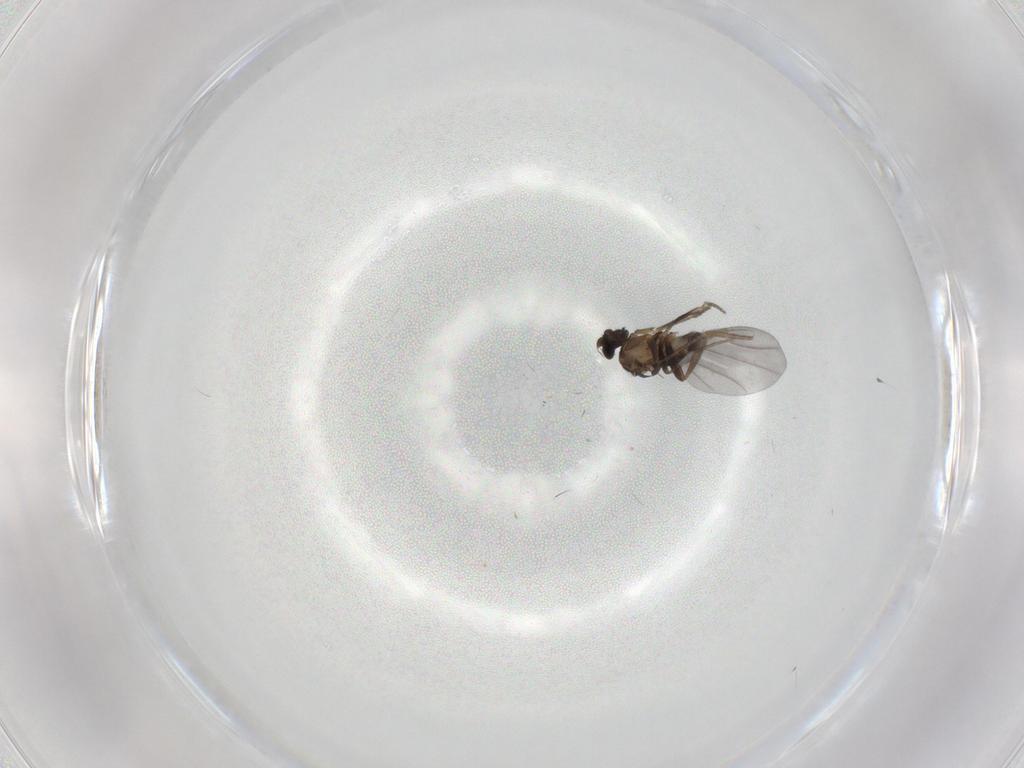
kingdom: Animalia
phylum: Arthropoda
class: Insecta
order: Diptera
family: Phoridae
